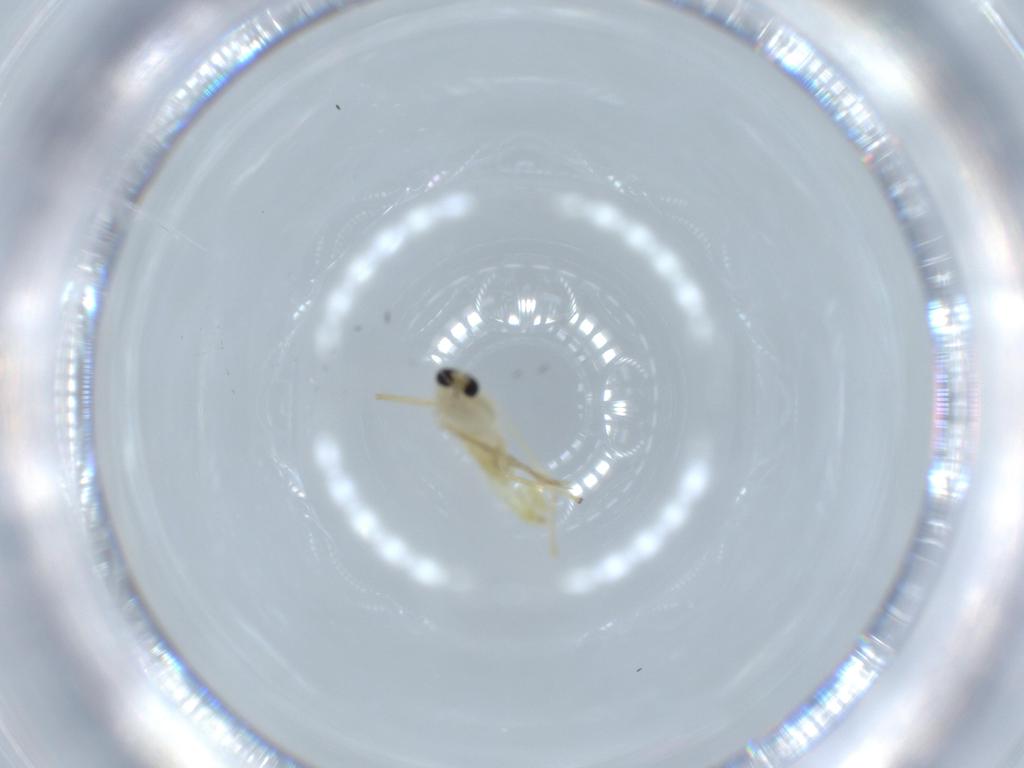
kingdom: Animalia
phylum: Arthropoda
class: Insecta
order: Diptera
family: Chironomidae
